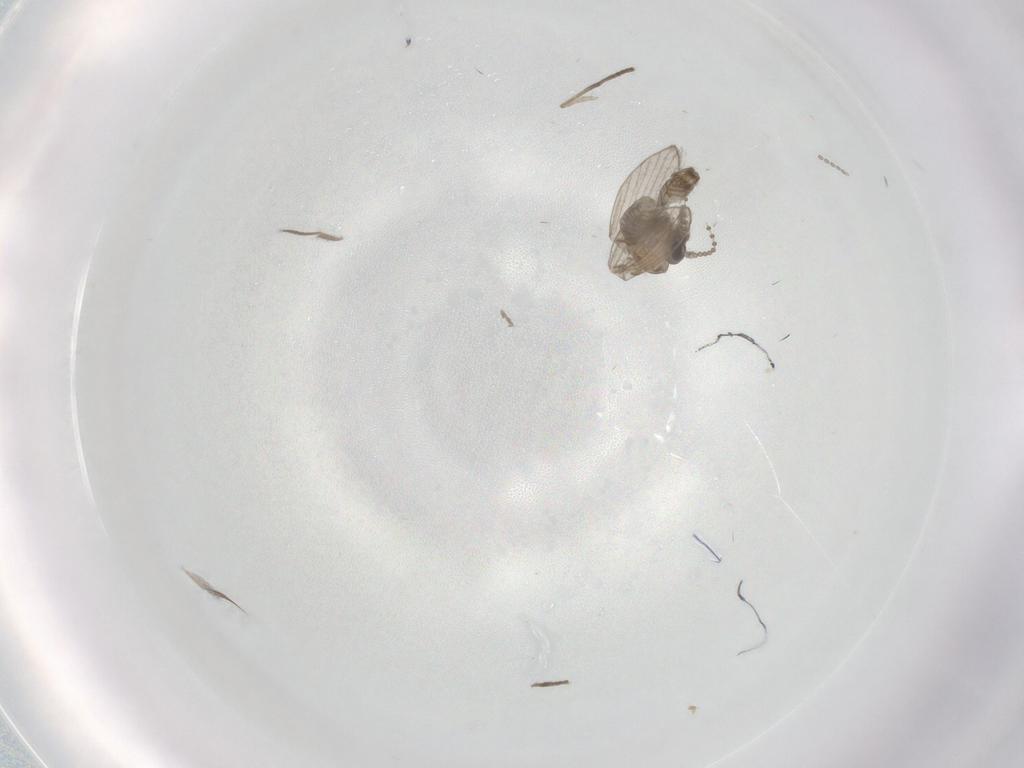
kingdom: Animalia
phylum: Arthropoda
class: Insecta
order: Diptera
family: Psychodidae
